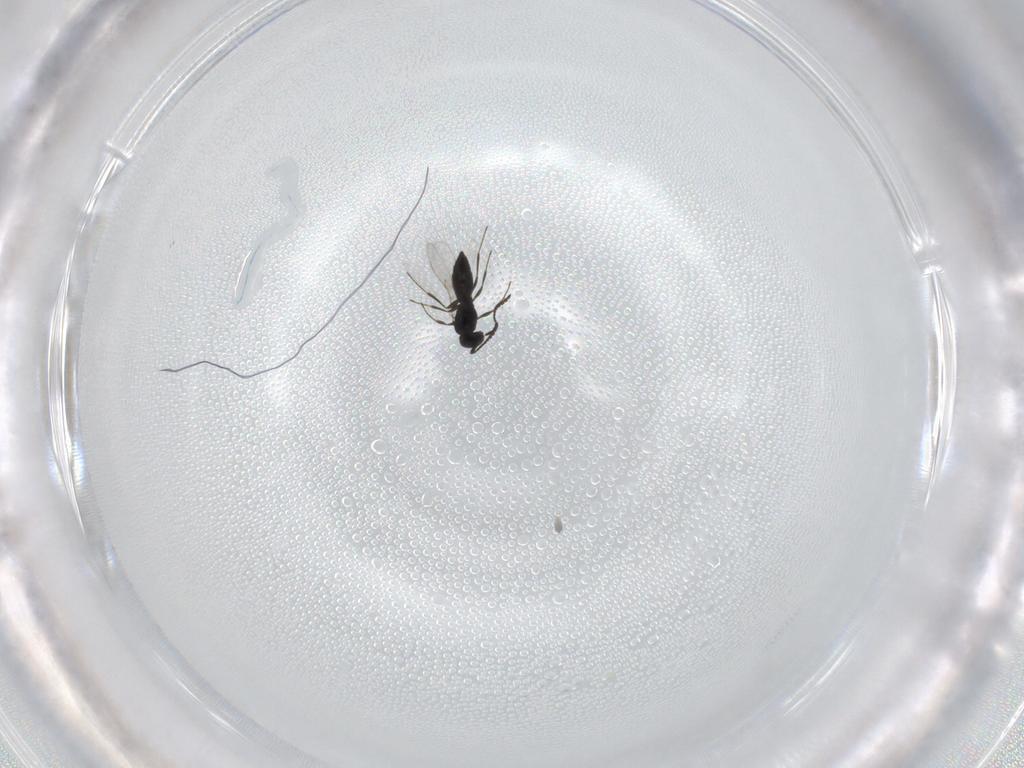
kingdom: Animalia
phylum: Arthropoda
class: Insecta
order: Hymenoptera
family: Scelionidae
